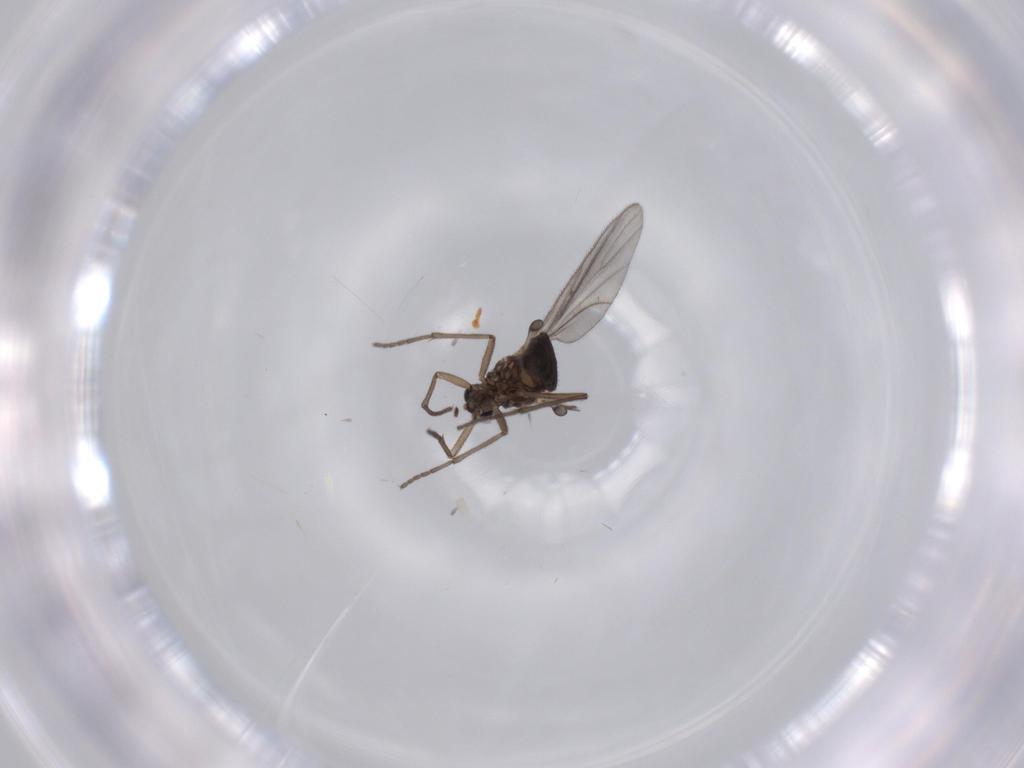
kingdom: Animalia
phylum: Arthropoda
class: Insecta
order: Diptera
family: Sciaridae
